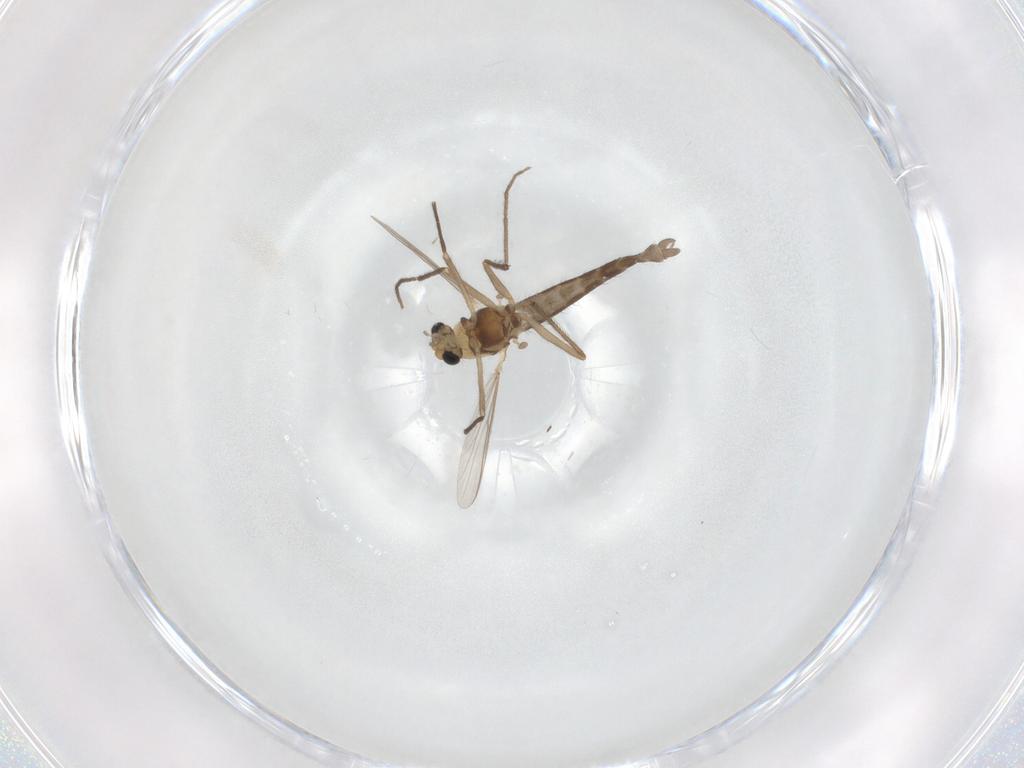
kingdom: Animalia
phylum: Arthropoda
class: Insecta
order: Diptera
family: Chironomidae
